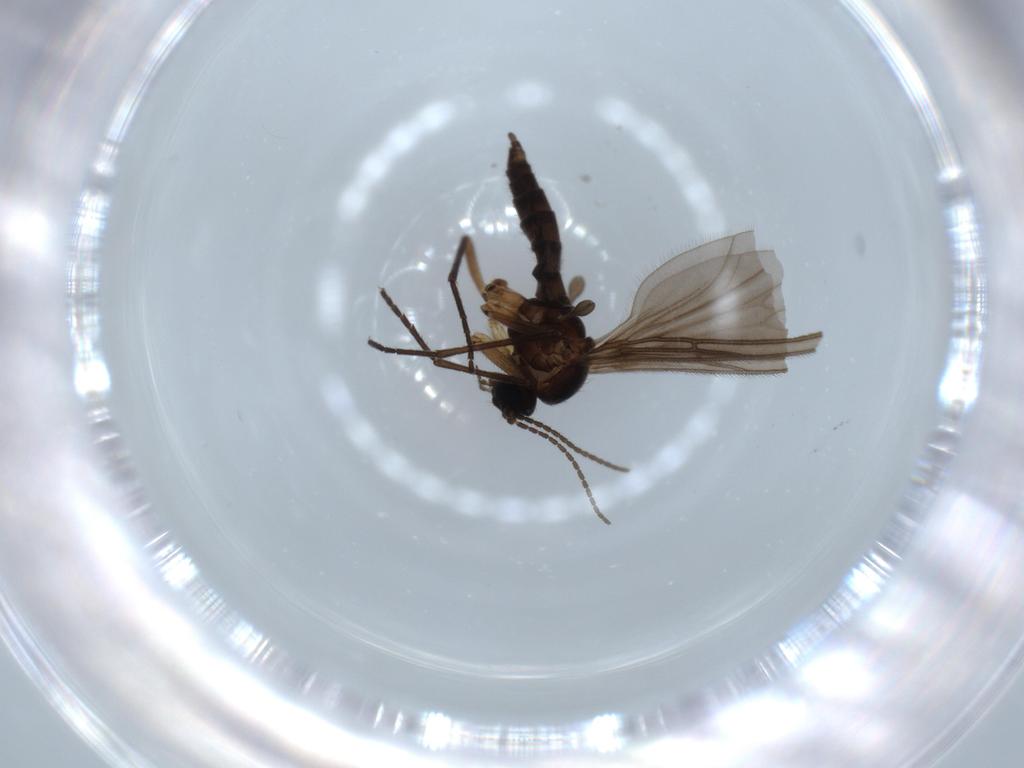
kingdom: Animalia
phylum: Arthropoda
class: Insecta
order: Diptera
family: Sciaridae
